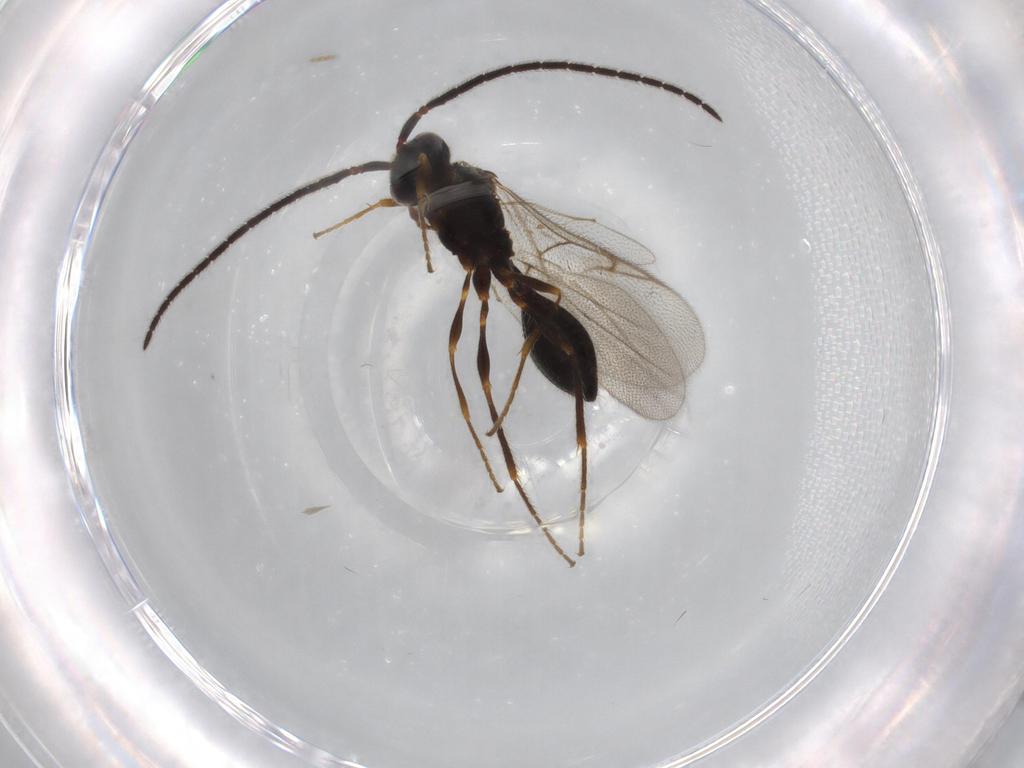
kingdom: Animalia
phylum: Arthropoda
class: Insecta
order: Hymenoptera
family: Diapriidae
